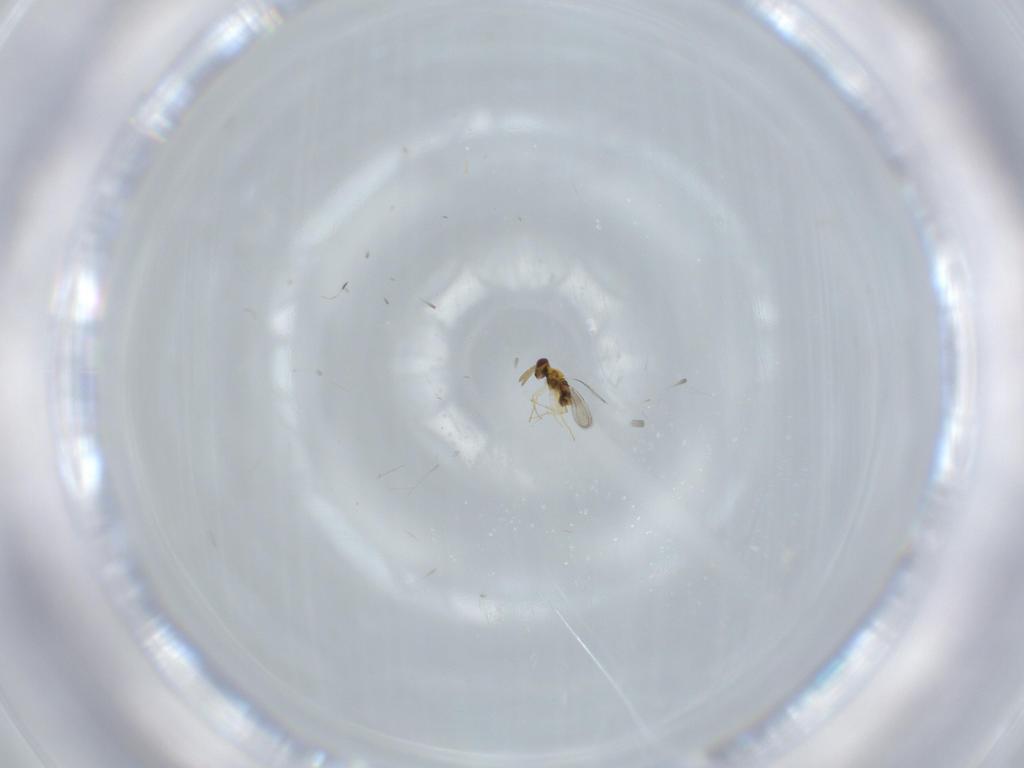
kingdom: Animalia
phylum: Arthropoda
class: Insecta
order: Hymenoptera
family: Aphelinidae
